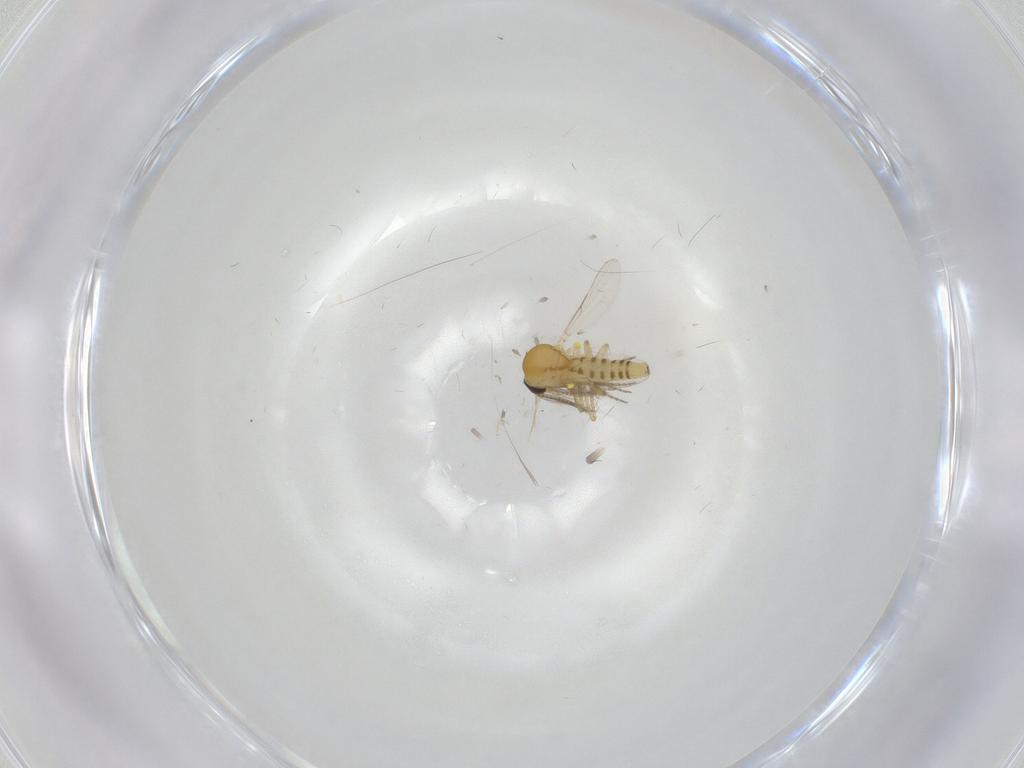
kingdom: Animalia
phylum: Arthropoda
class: Insecta
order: Diptera
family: Ceratopogonidae
